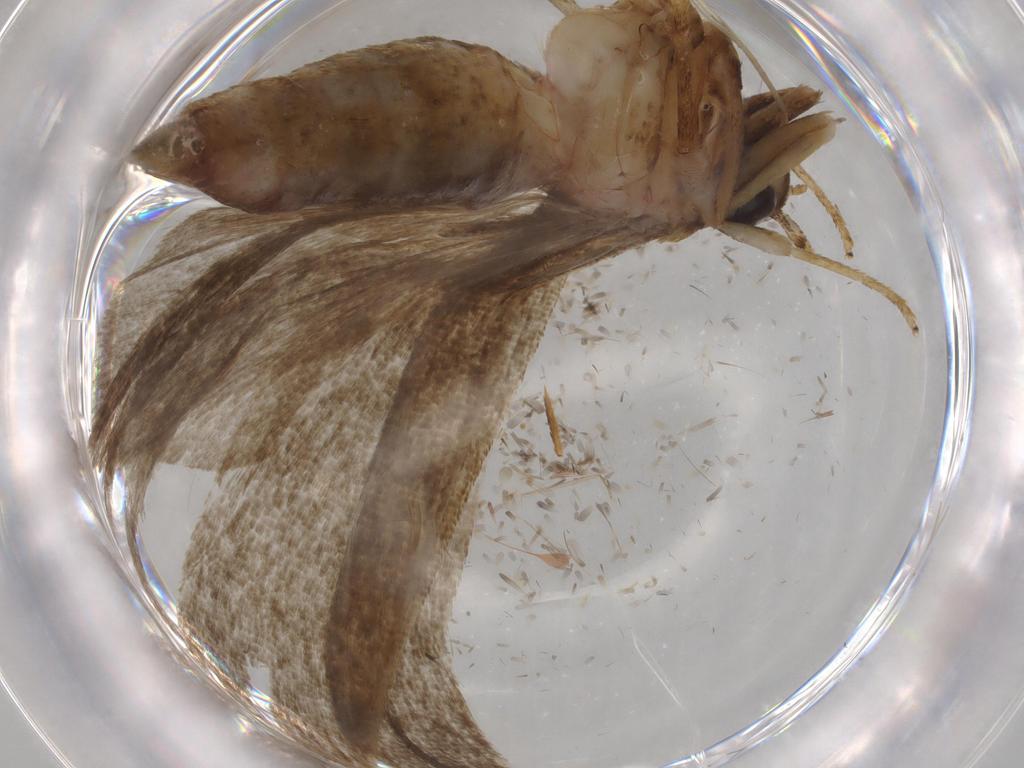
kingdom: Animalia
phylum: Arthropoda
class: Insecta
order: Lepidoptera
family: Autostichidae
